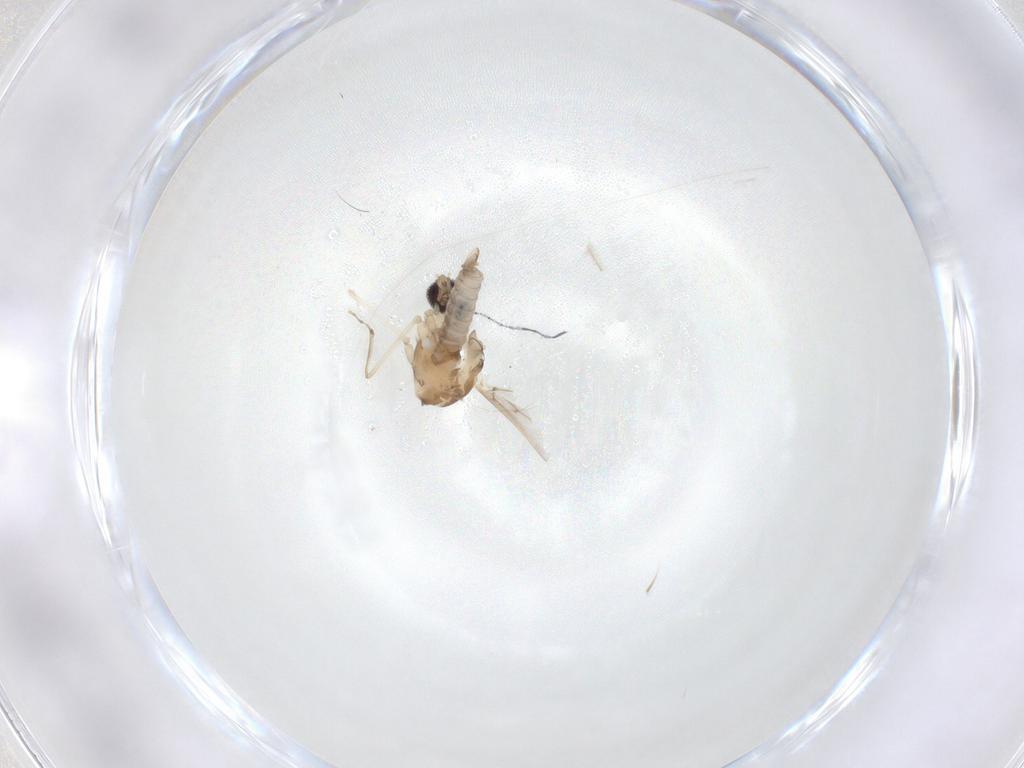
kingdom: Animalia
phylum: Arthropoda
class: Insecta
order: Diptera
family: Cecidomyiidae
